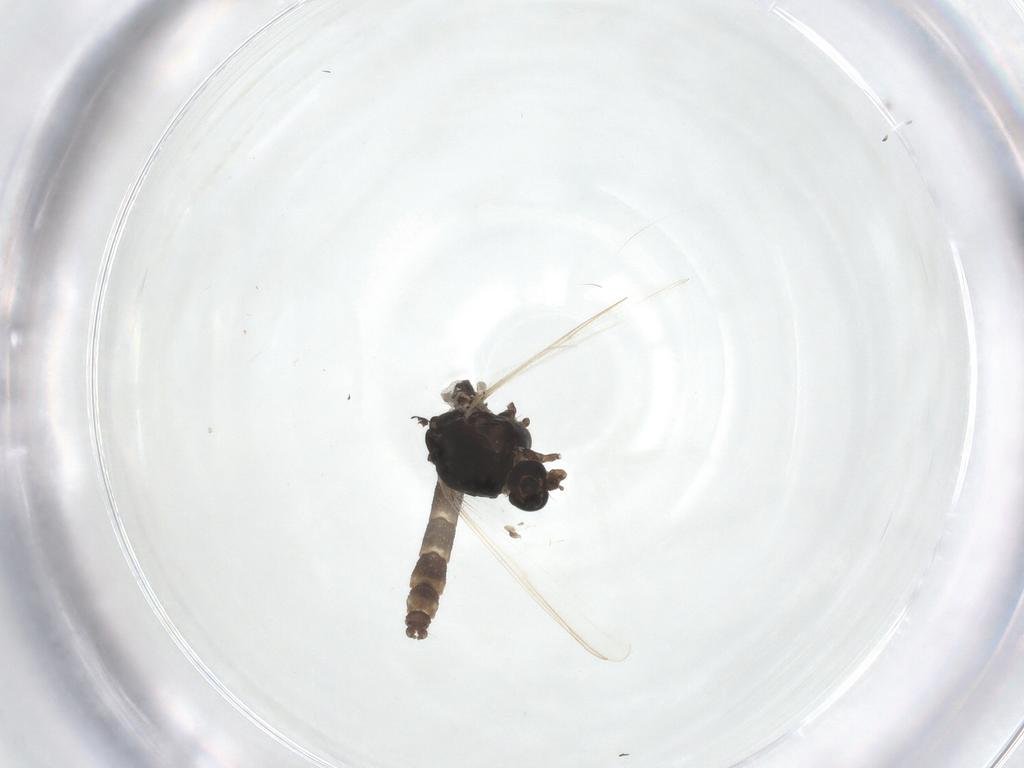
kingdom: Animalia
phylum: Arthropoda
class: Insecta
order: Diptera
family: Chironomidae
